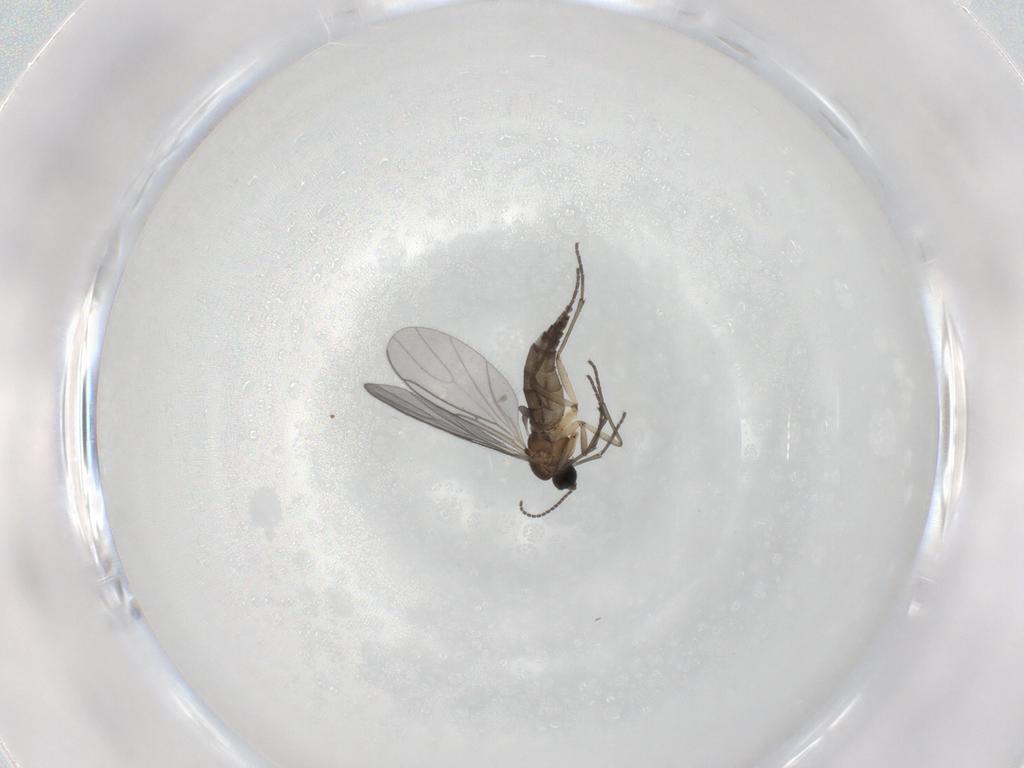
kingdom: Animalia
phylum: Arthropoda
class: Insecta
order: Diptera
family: Sciaridae
